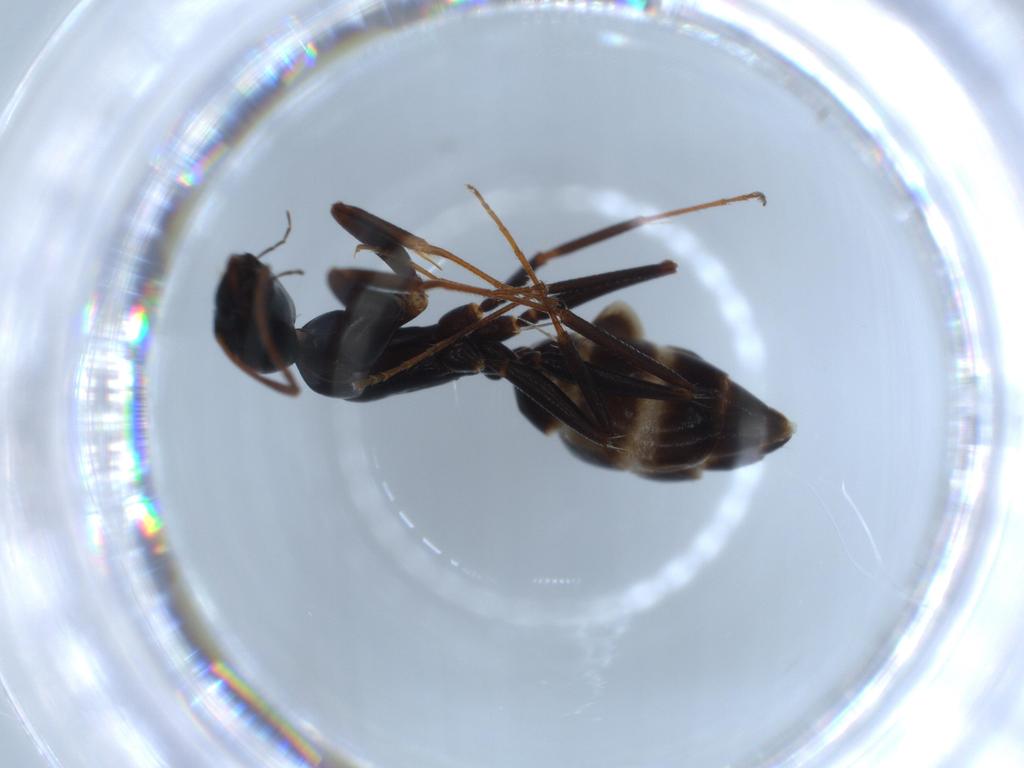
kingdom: Animalia
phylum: Arthropoda
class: Insecta
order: Hymenoptera
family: Formicidae
